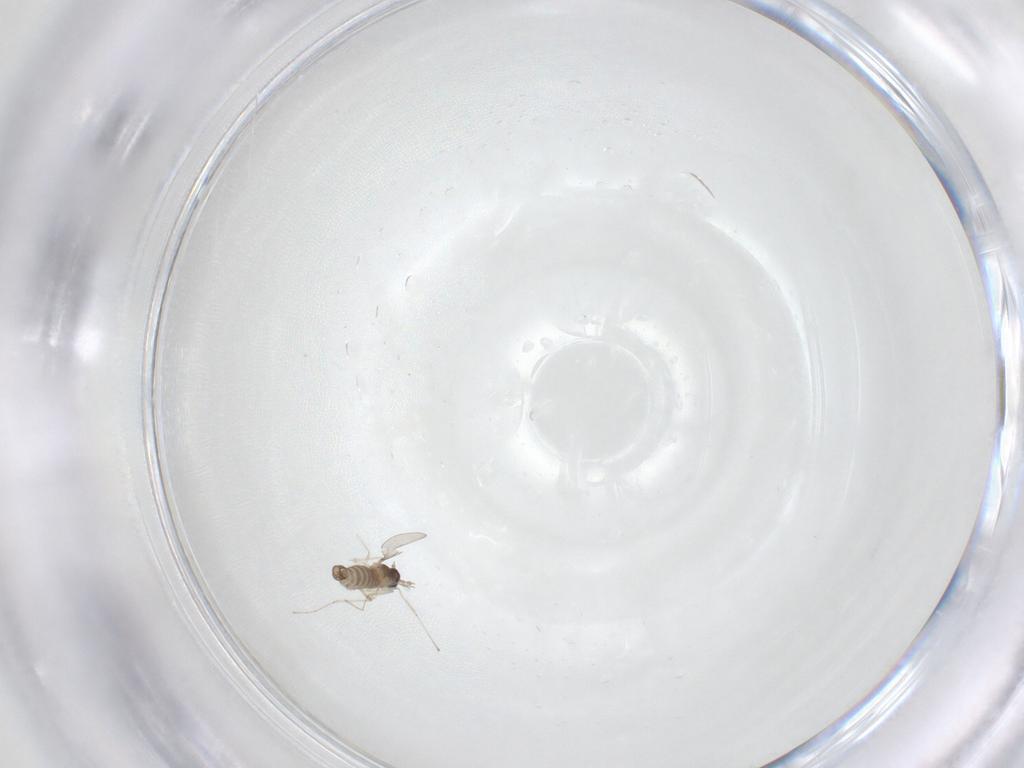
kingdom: Animalia
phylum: Arthropoda
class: Insecta
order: Diptera
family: Cecidomyiidae
